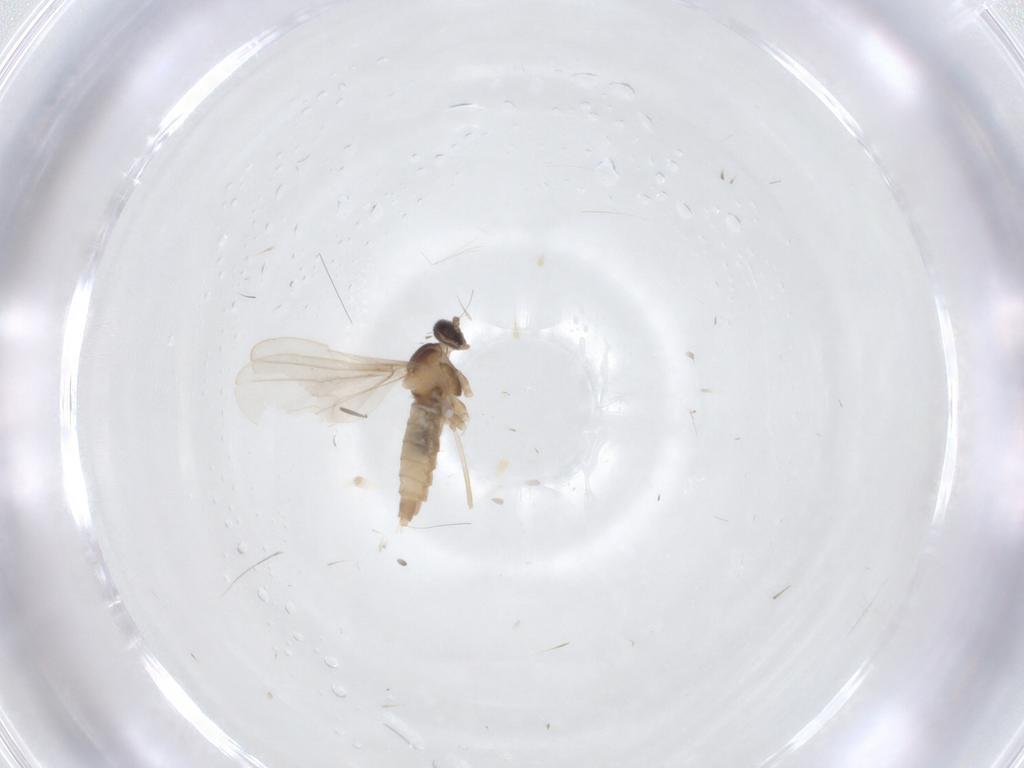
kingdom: Animalia
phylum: Arthropoda
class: Insecta
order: Diptera
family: Cecidomyiidae
